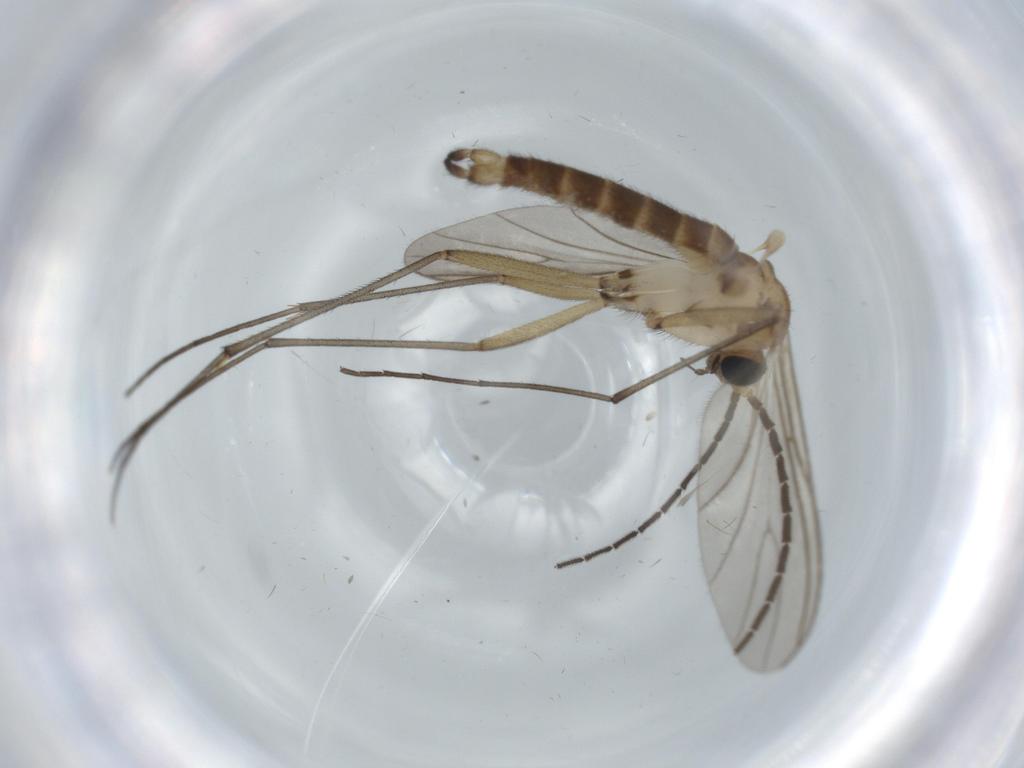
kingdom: Animalia
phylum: Arthropoda
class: Insecta
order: Diptera
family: Sciaridae
